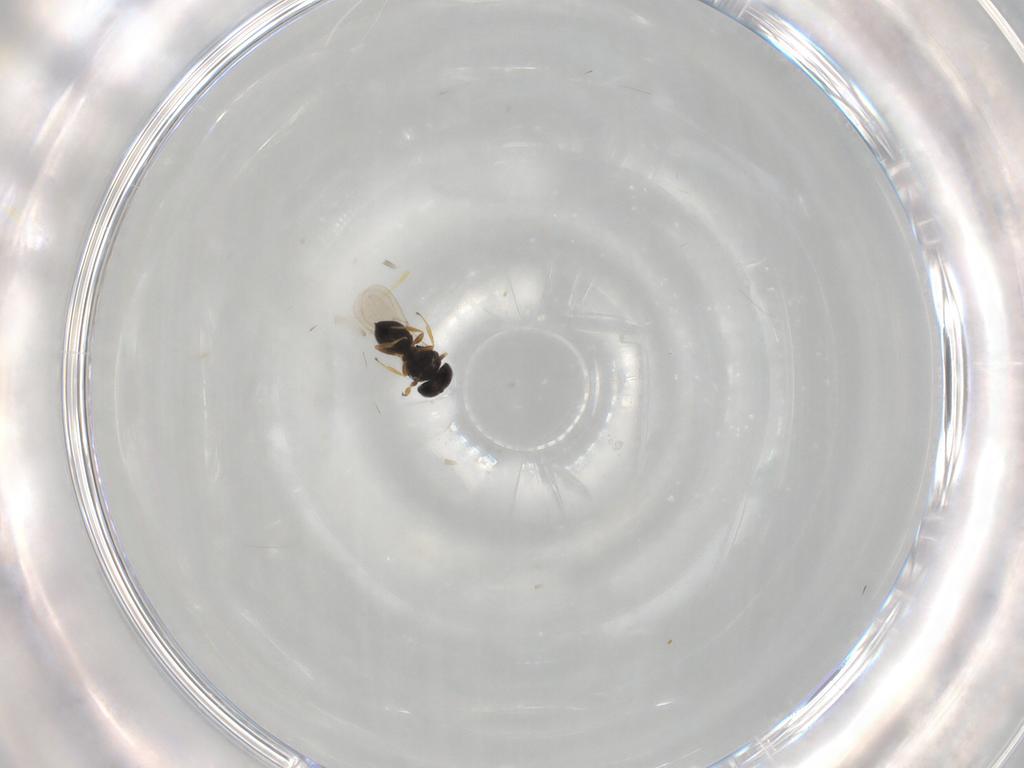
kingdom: Animalia
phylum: Arthropoda
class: Insecta
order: Hymenoptera
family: Scelionidae
